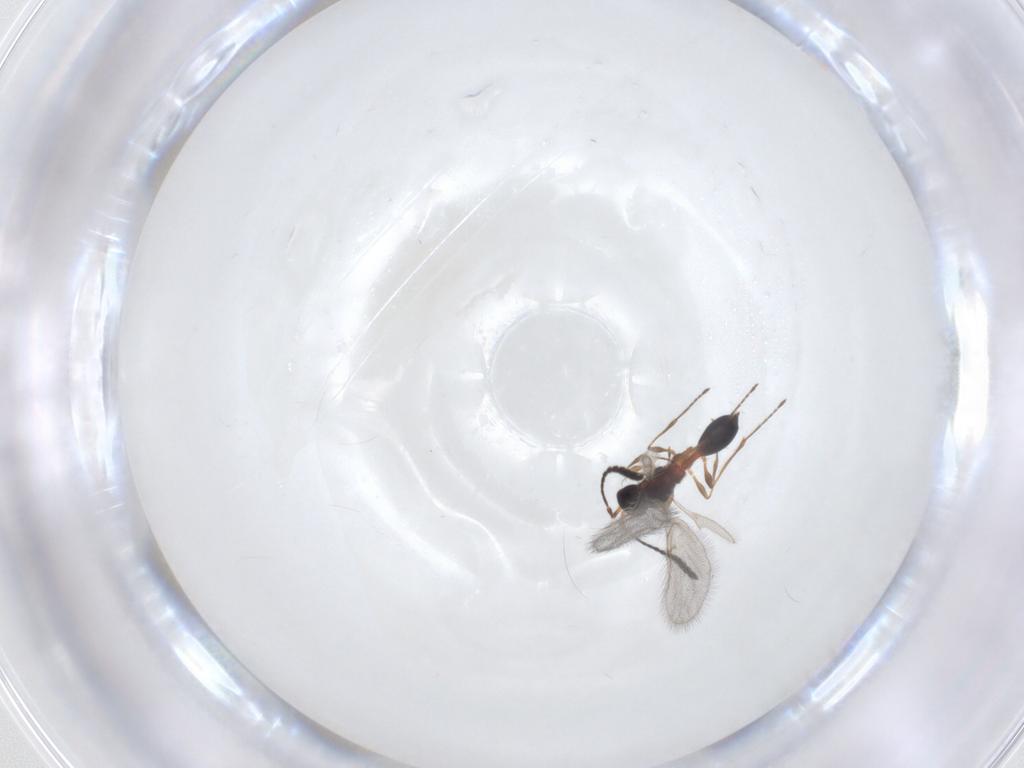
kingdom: Animalia
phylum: Arthropoda
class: Insecta
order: Hymenoptera
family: Diapriidae
